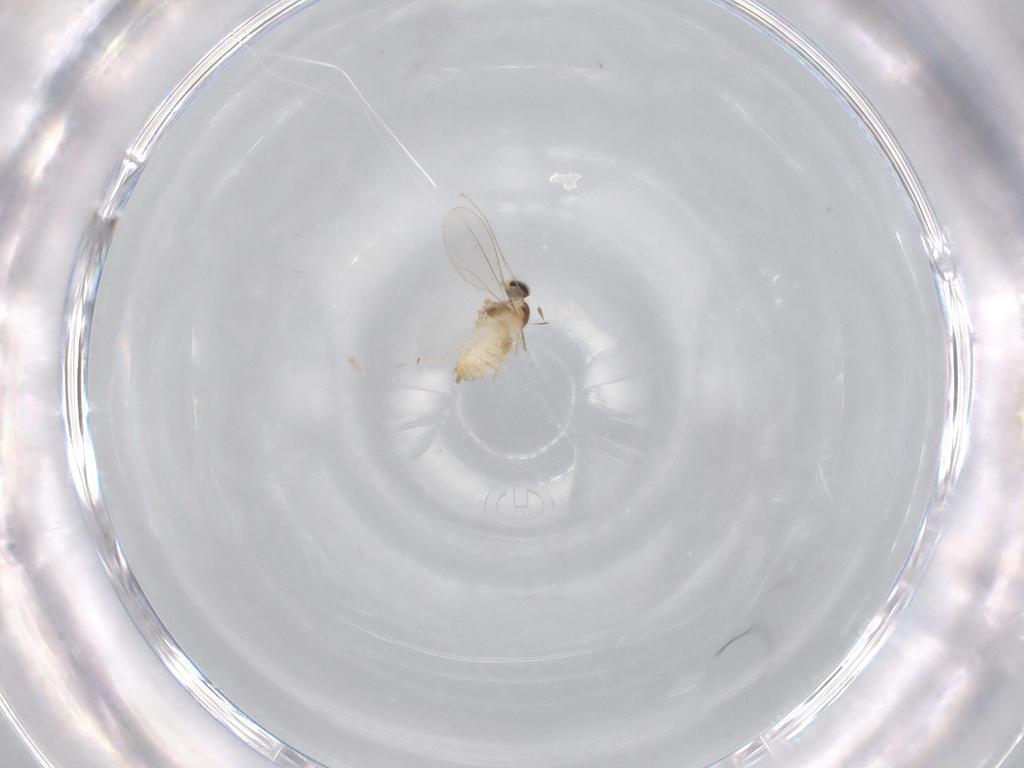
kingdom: Animalia
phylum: Arthropoda
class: Insecta
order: Diptera
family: Cecidomyiidae
